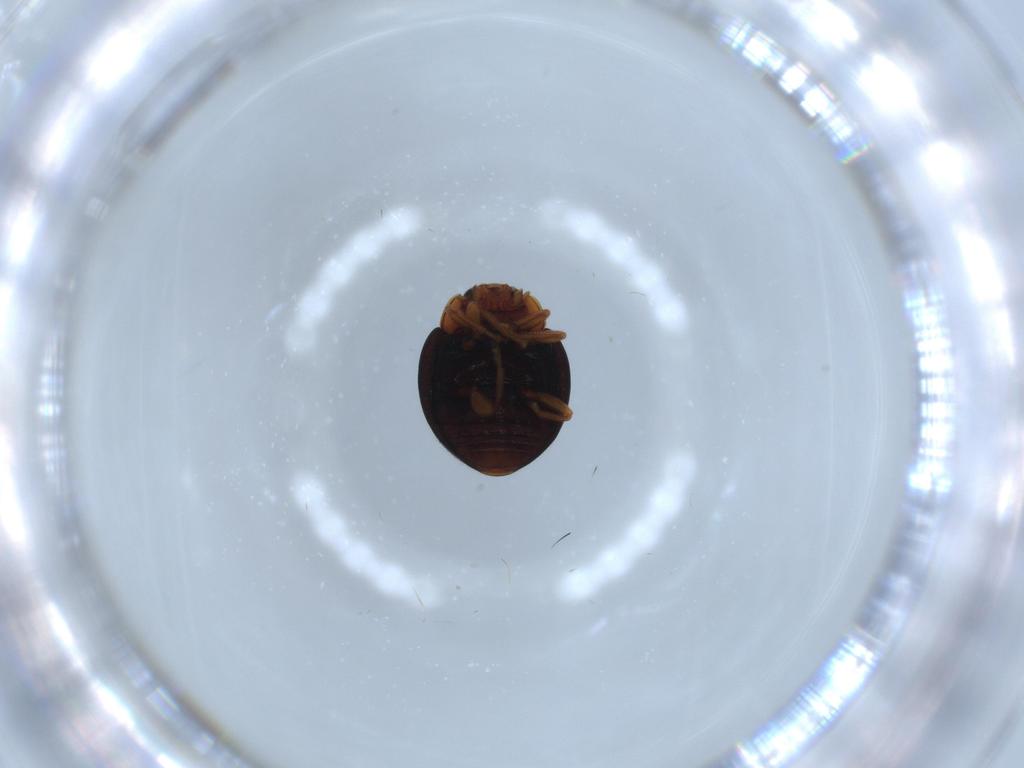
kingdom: Animalia
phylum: Arthropoda
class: Insecta
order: Coleoptera
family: Coccinellidae
